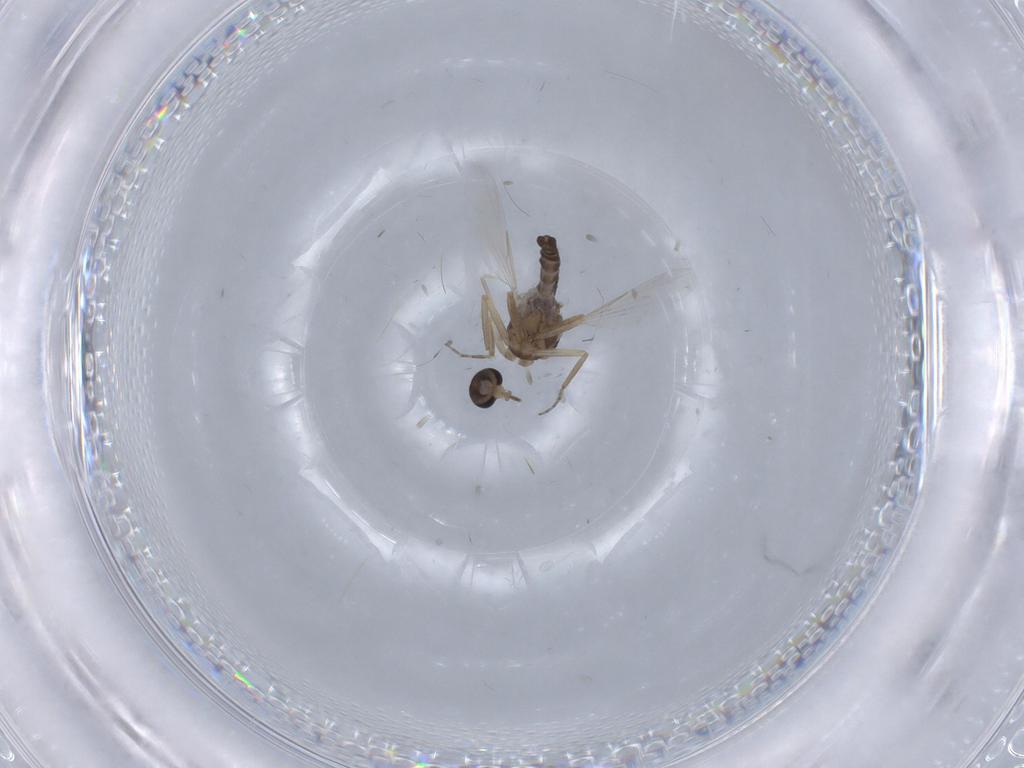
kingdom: Animalia
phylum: Arthropoda
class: Insecta
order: Diptera
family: Ceratopogonidae
